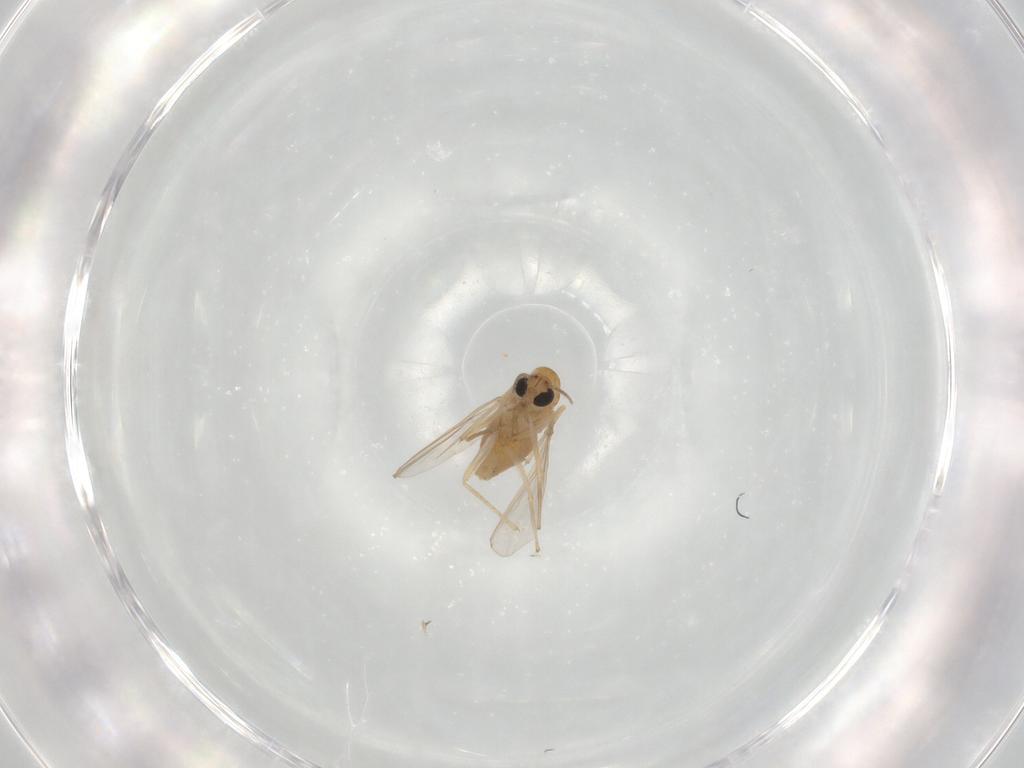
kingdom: Animalia
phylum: Arthropoda
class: Insecta
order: Diptera
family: Chironomidae
